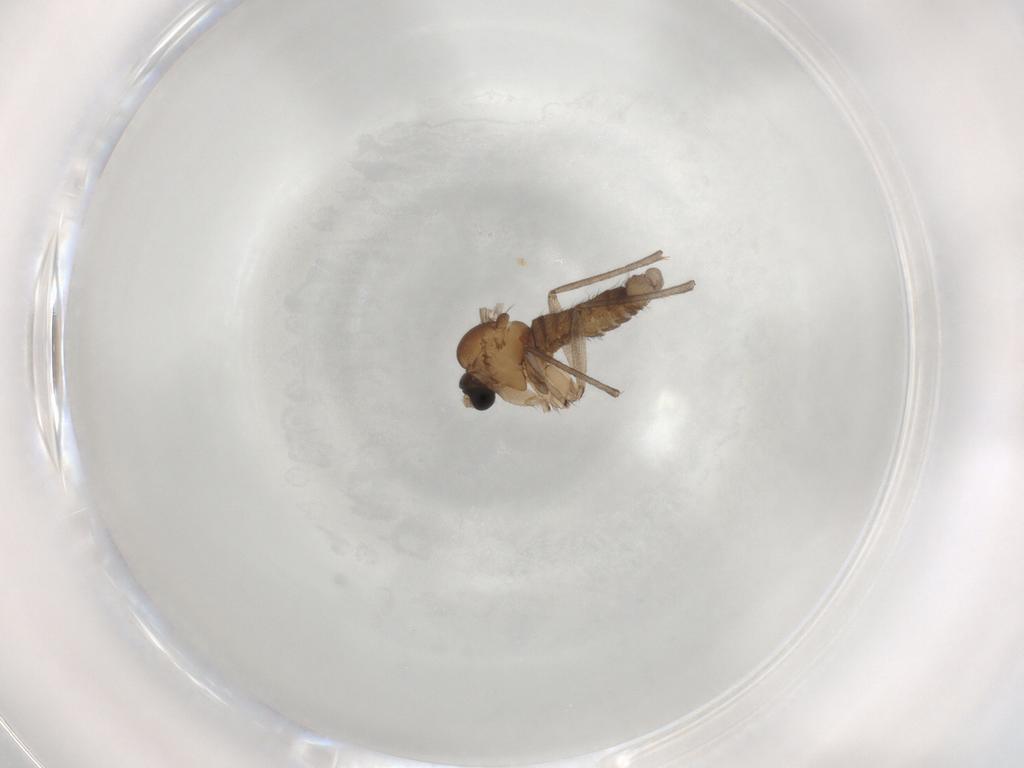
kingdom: Animalia
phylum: Arthropoda
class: Insecta
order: Diptera
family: Sciaridae
